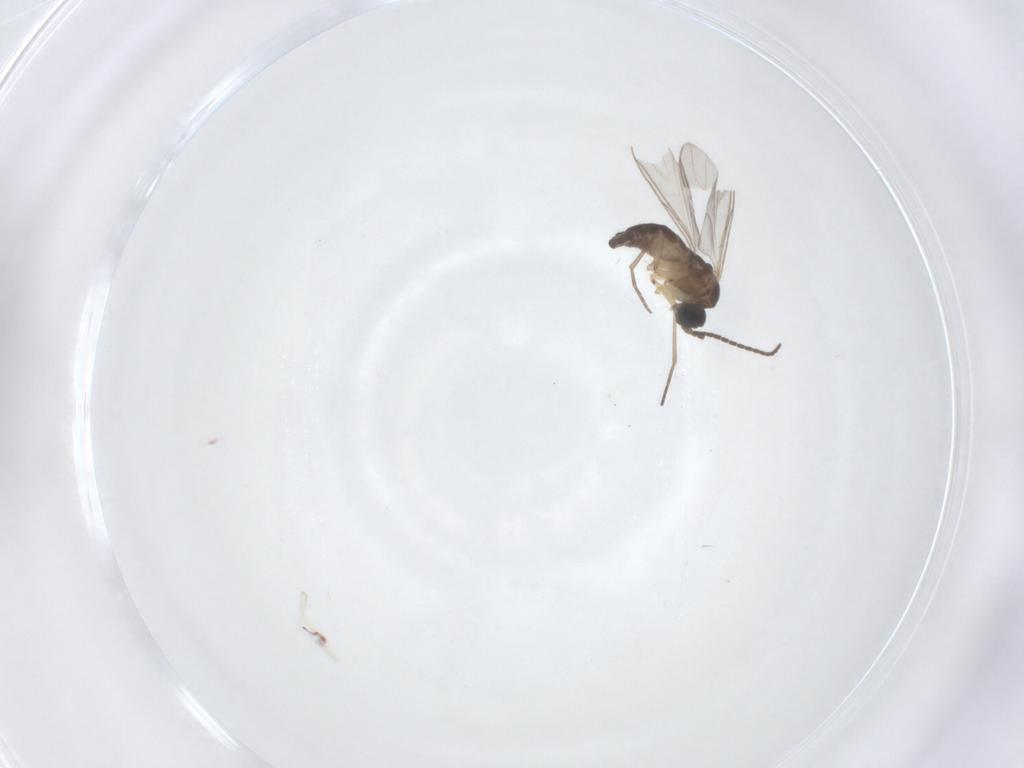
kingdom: Animalia
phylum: Arthropoda
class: Insecta
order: Diptera
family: Sciaridae
